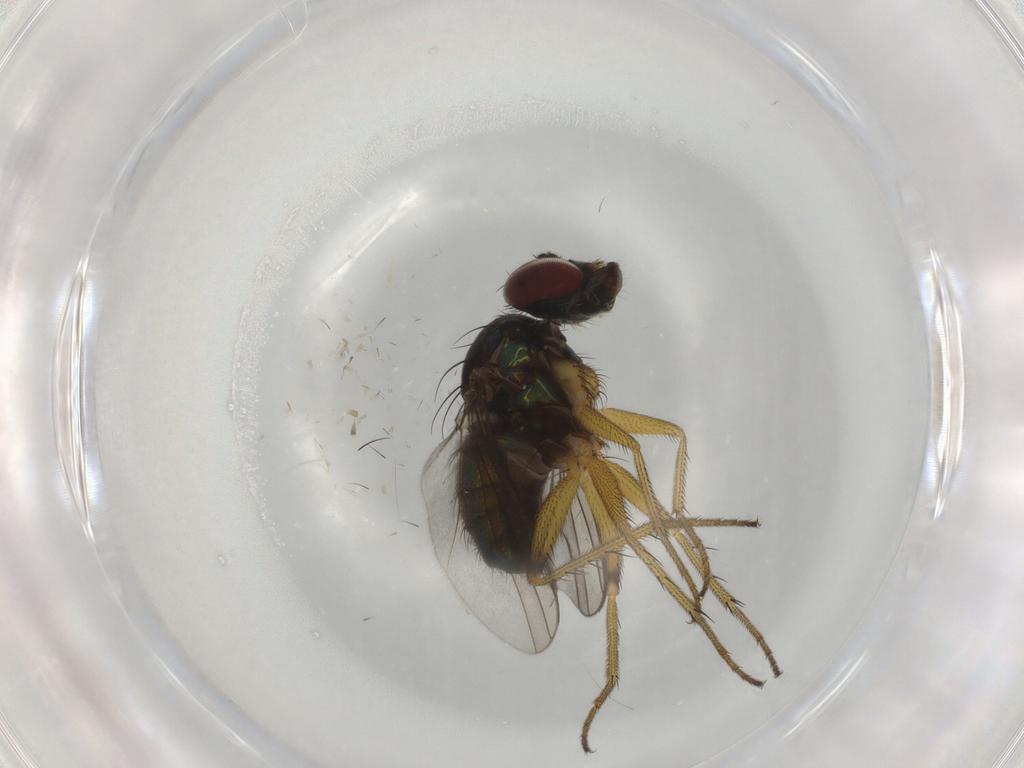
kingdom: Animalia
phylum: Arthropoda
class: Insecta
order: Diptera
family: Dolichopodidae
